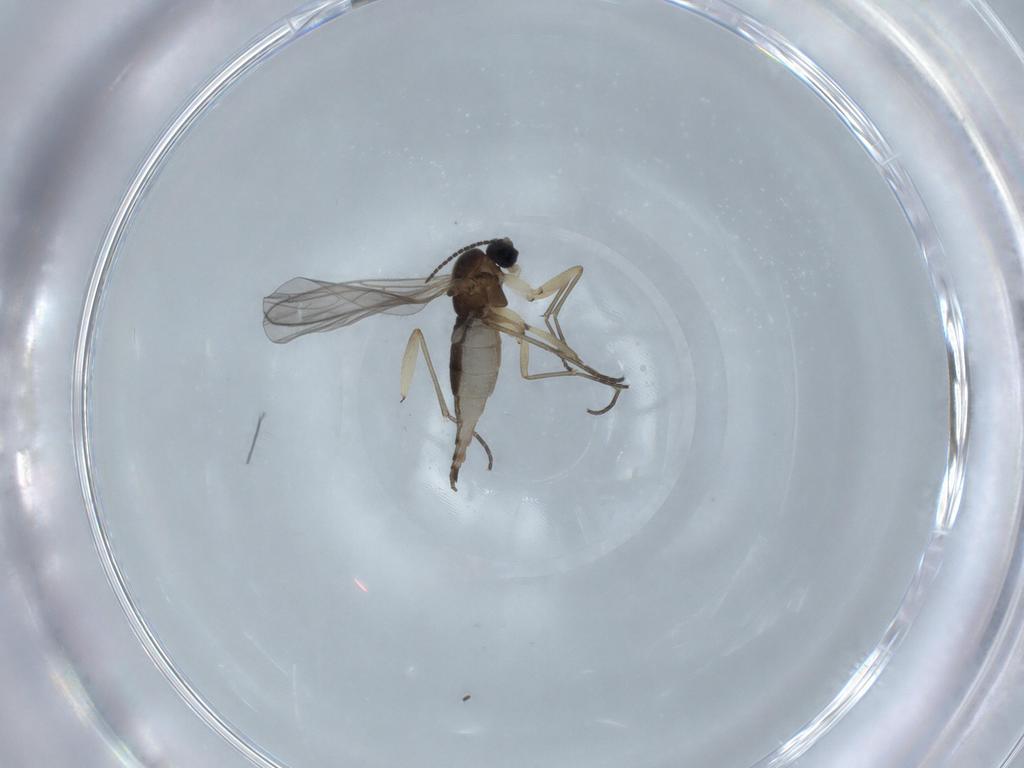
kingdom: Animalia
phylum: Arthropoda
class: Insecta
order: Diptera
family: Sciaridae
